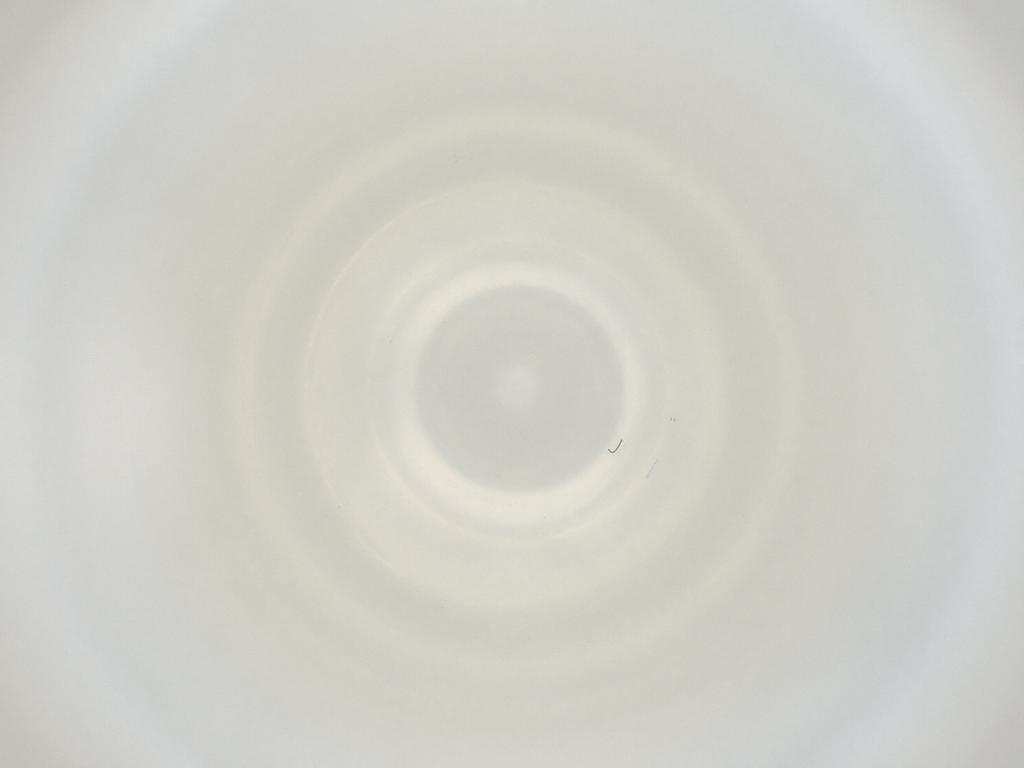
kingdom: Animalia
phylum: Arthropoda
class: Insecta
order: Diptera
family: Cecidomyiidae
